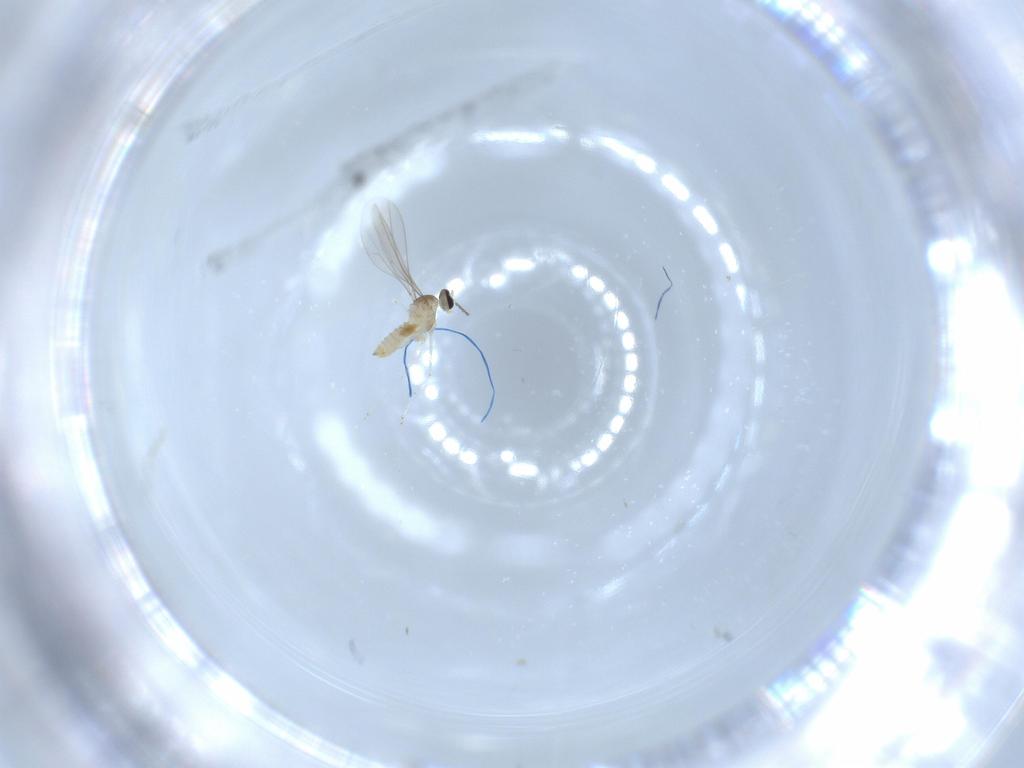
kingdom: Animalia
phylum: Arthropoda
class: Insecta
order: Diptera
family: Cecidomyiidae
